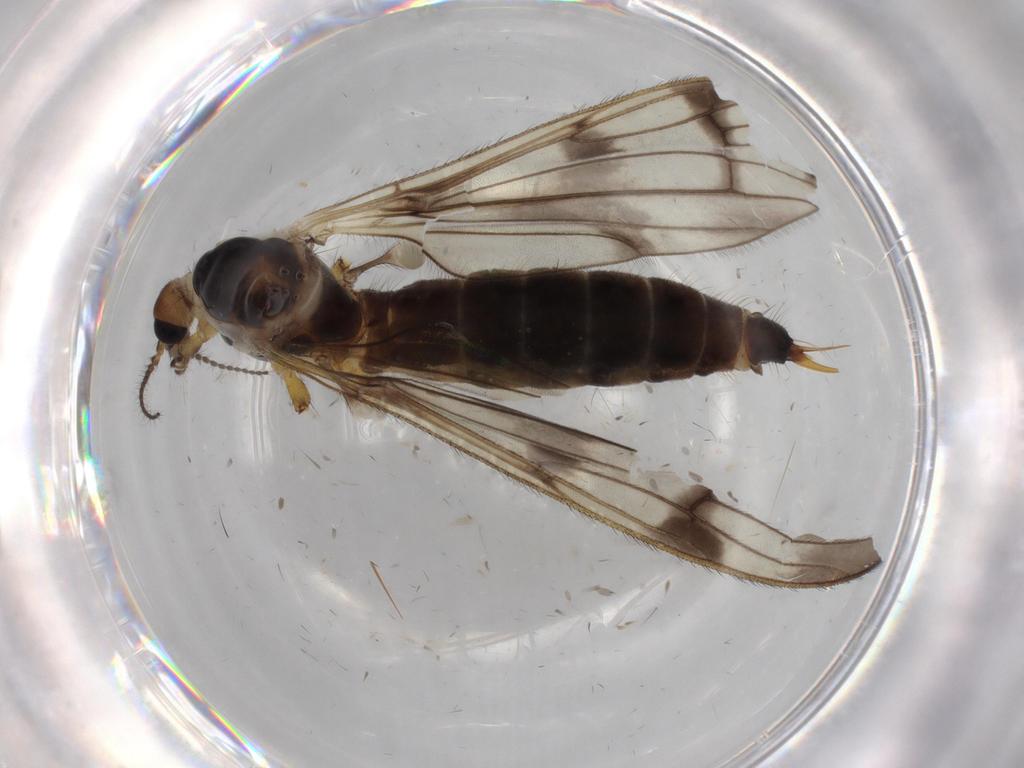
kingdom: Animalia
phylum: Arthropoda
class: Insecta
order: Diptera
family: Limoniidae
